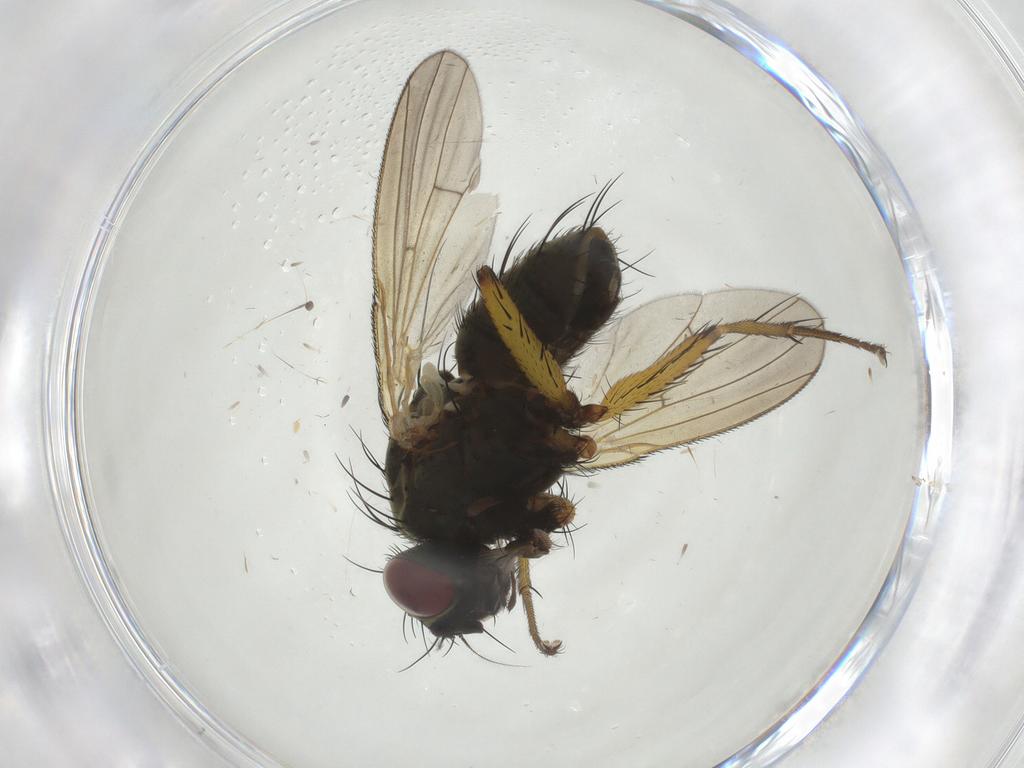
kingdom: Animalia
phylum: Arthropoda
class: Insecta
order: Diptera
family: Muscidae
